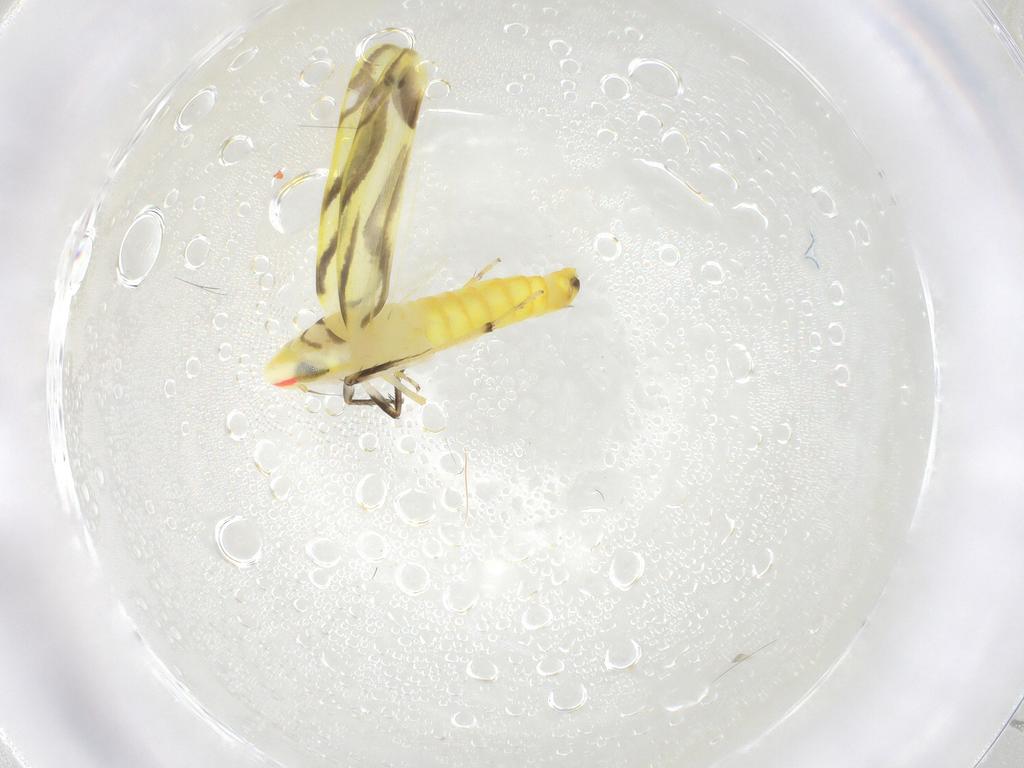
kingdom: Animalia
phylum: Arthropoda
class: Insecta
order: Hemiptera
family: Cicadellidae
